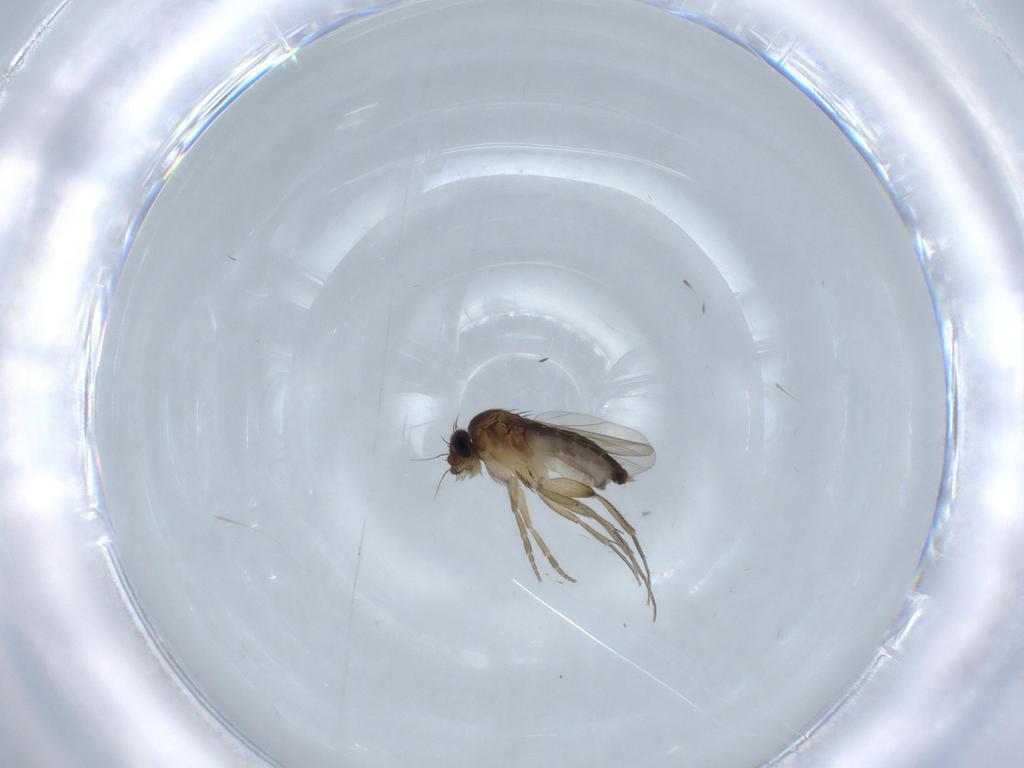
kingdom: Animalia
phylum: Arthropoda
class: Insecta
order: Diptera
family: Phoridae
